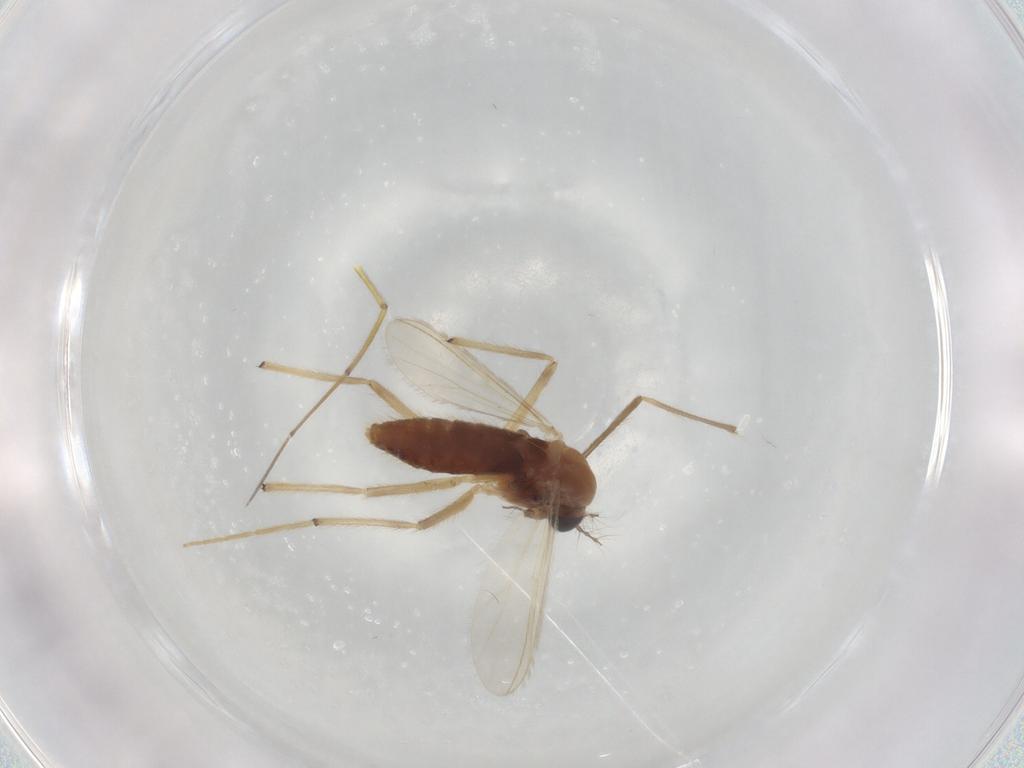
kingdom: Animalia
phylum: Arthropoda
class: Insecta
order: Diptera
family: Chironomidae
